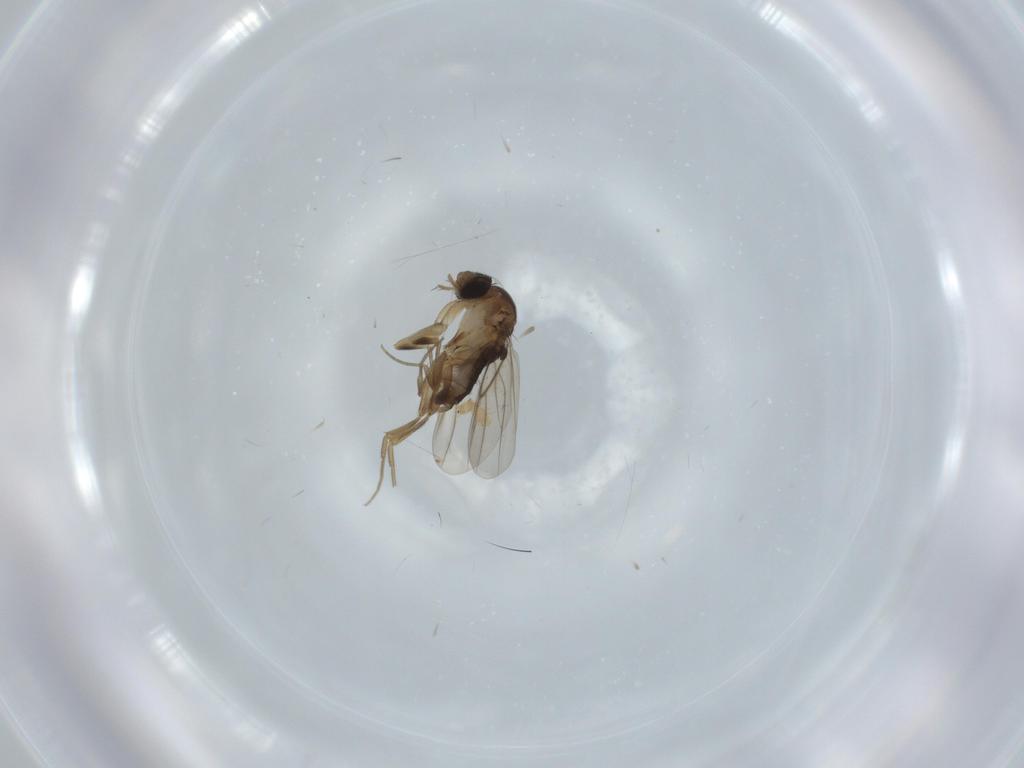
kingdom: Animalia
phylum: Arthropoda
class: Insecta
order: Diptera
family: Phoridae
